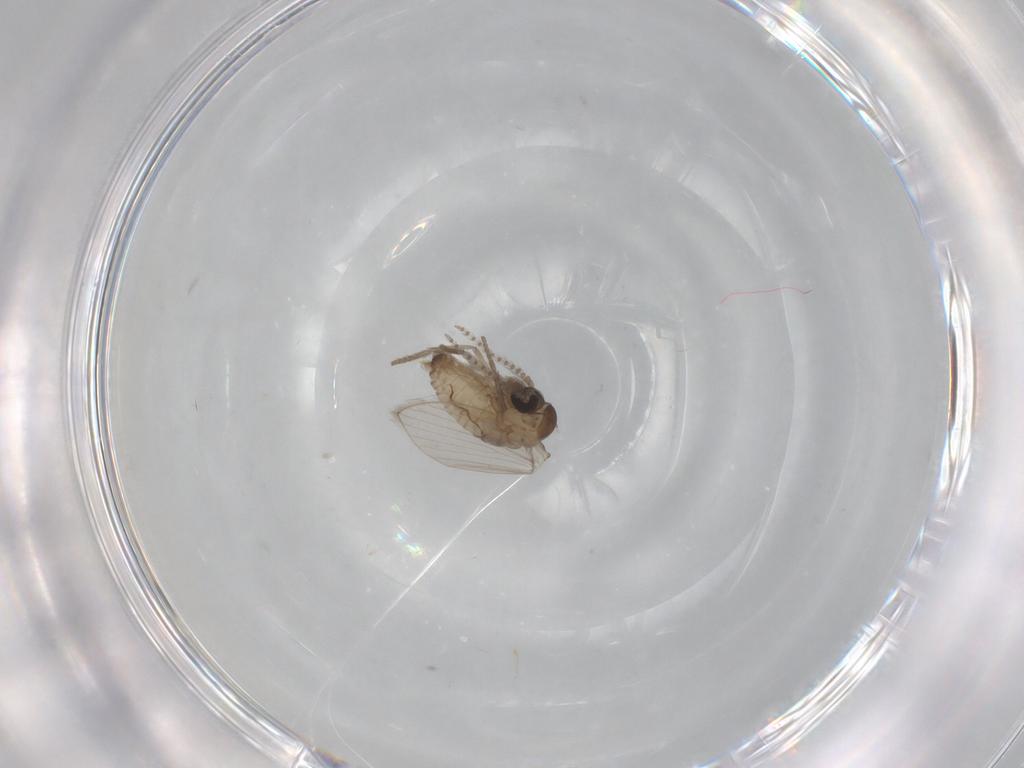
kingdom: Animalia
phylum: Arthropoda
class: Insecta
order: Diptera
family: Psychodidae
